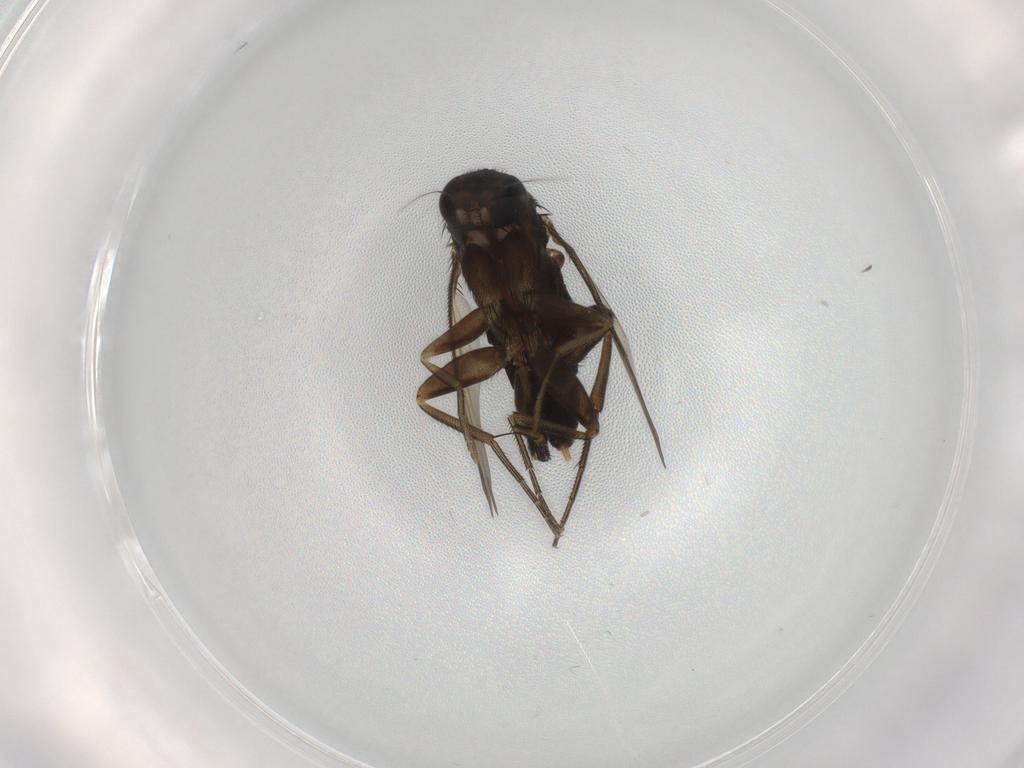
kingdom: Animalia
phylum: Arthropoda
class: Insecta
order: Diptera
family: Phoridae
